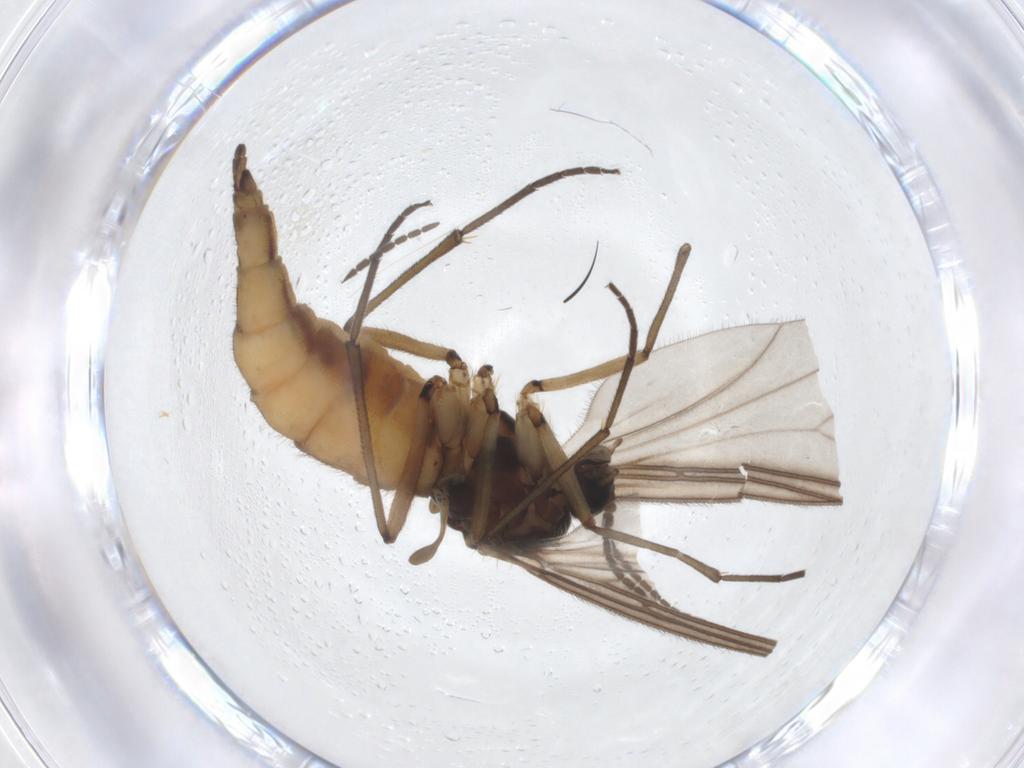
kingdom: Animalia
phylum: Arthropoda
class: Insecta
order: Diptera
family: Sciaridae
